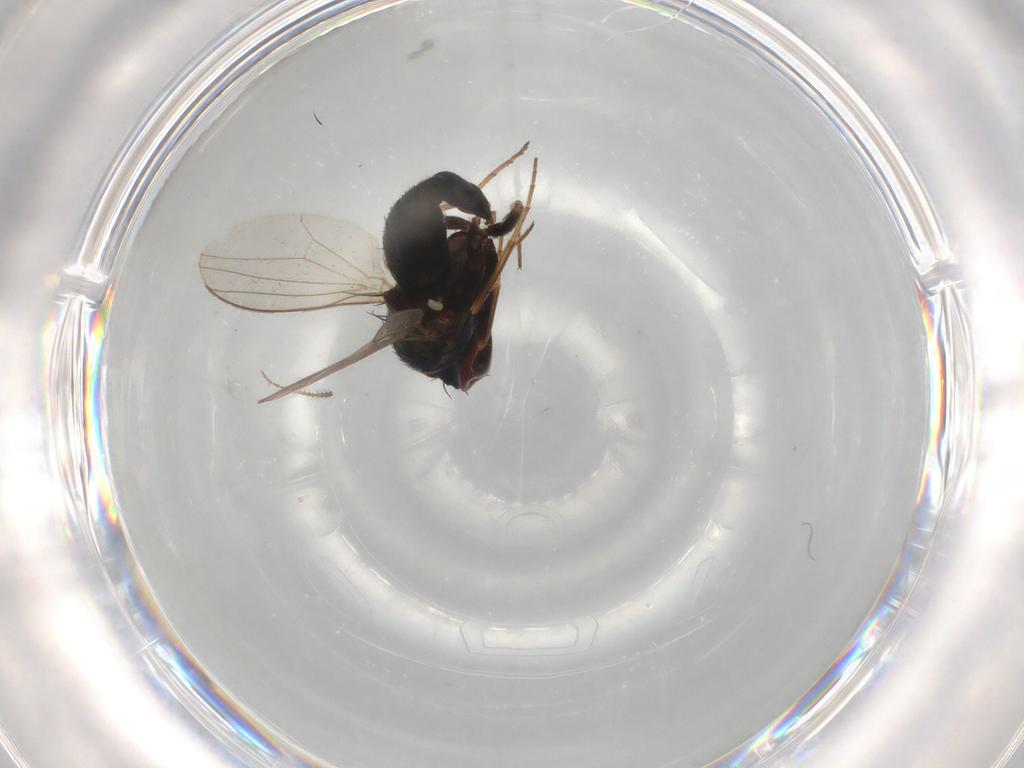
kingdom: Animalia
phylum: Arthropoda
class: Insecta
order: Diptera
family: Dolichopodidae
